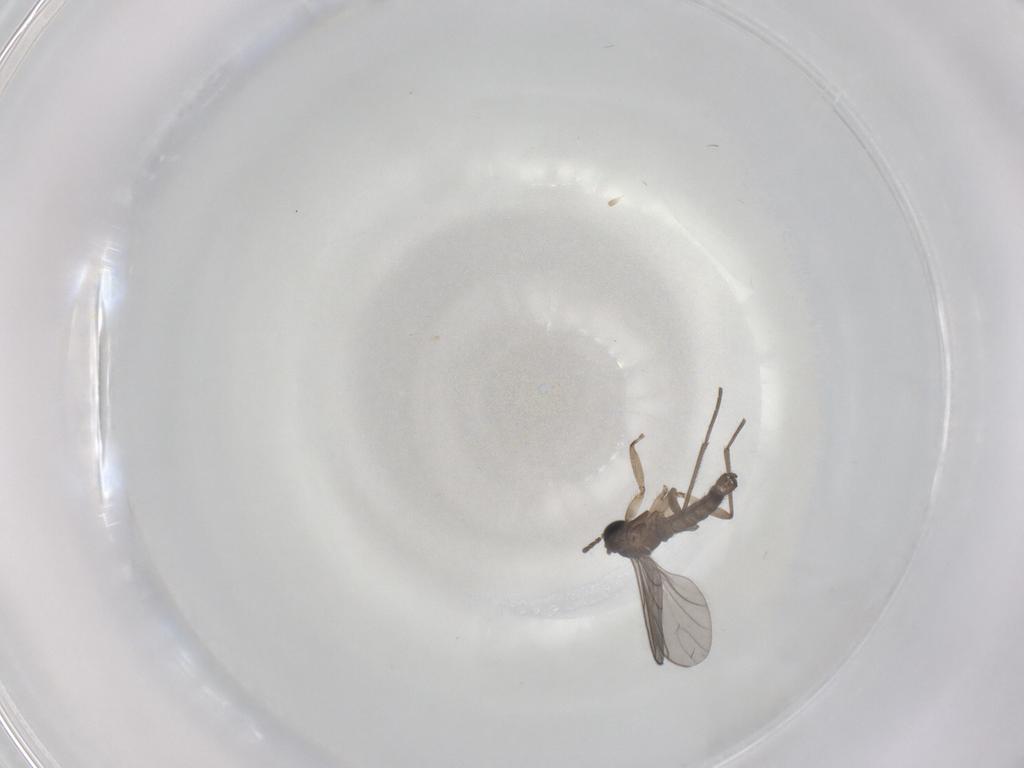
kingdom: Animalia
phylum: Arthropoda
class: Insecta
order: Diptera
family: Sciaridae
